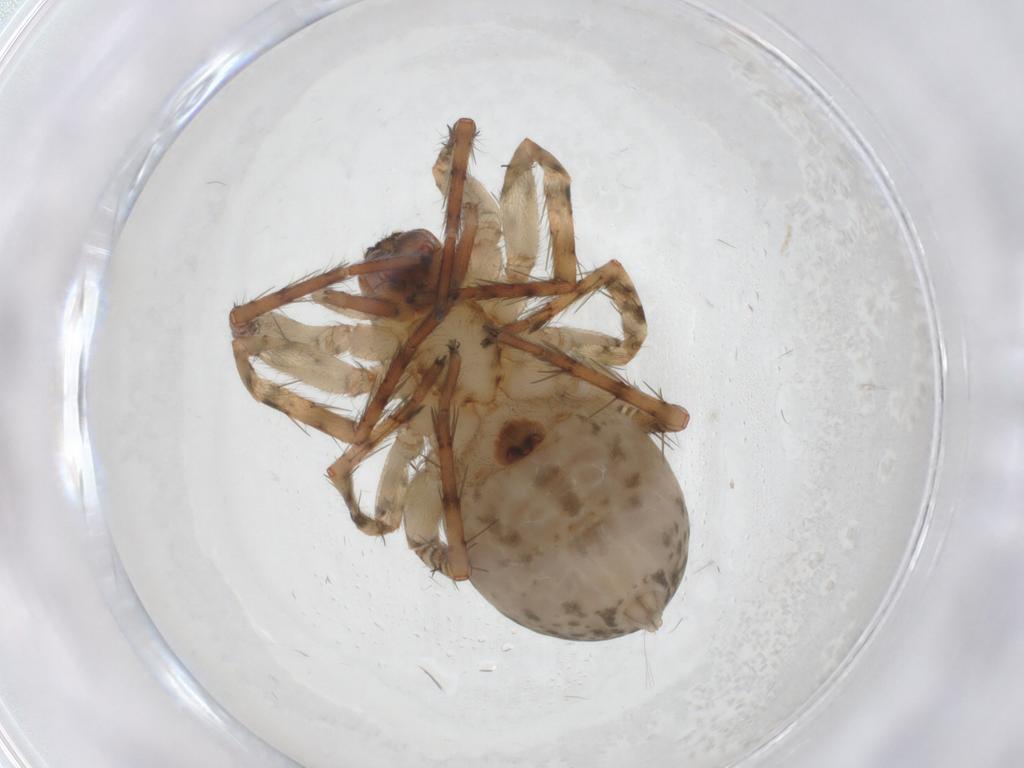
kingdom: Animalia
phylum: Arthropoda
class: Arachnida
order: Araneae
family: Anyphaenidae
